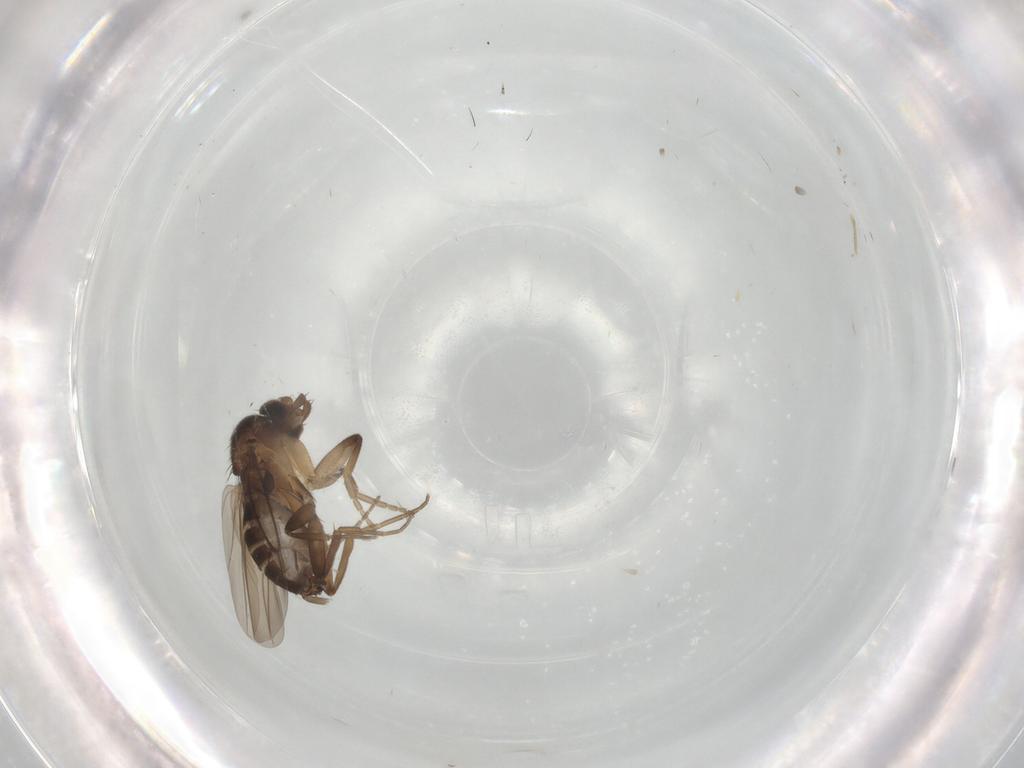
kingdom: Animalia
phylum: Arthropoda
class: Insecta
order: Diptera
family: Phoridae
